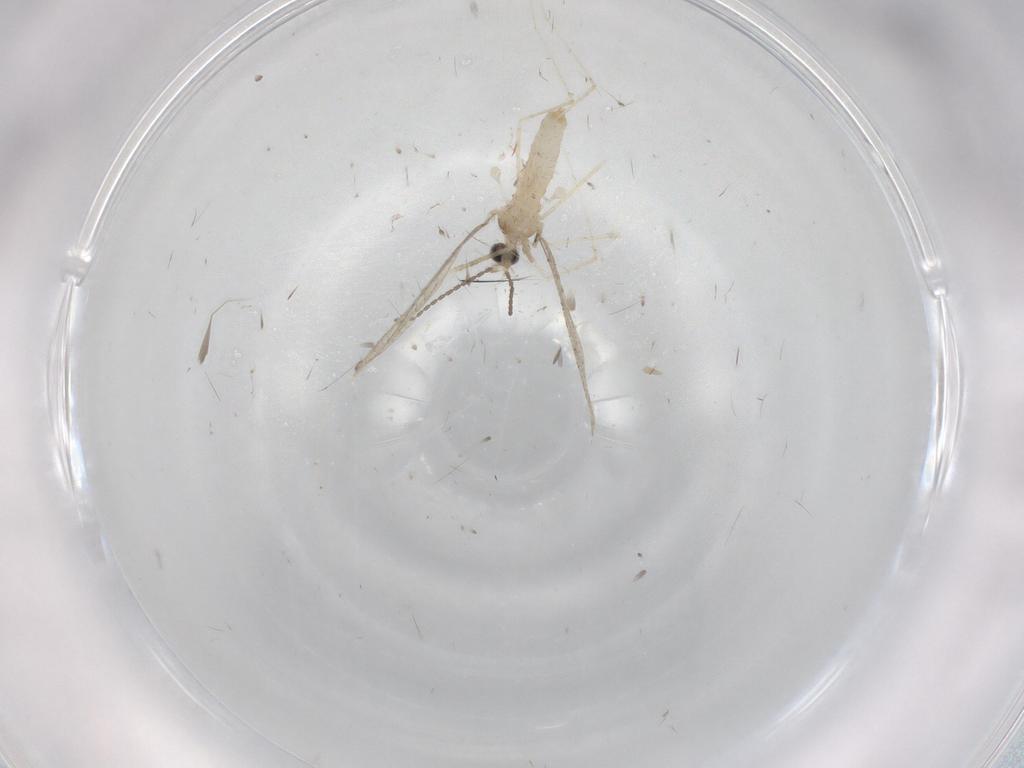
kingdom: Animalia
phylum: Arthropoda
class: Insecta
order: Diptera
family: Cecidomyiidae
